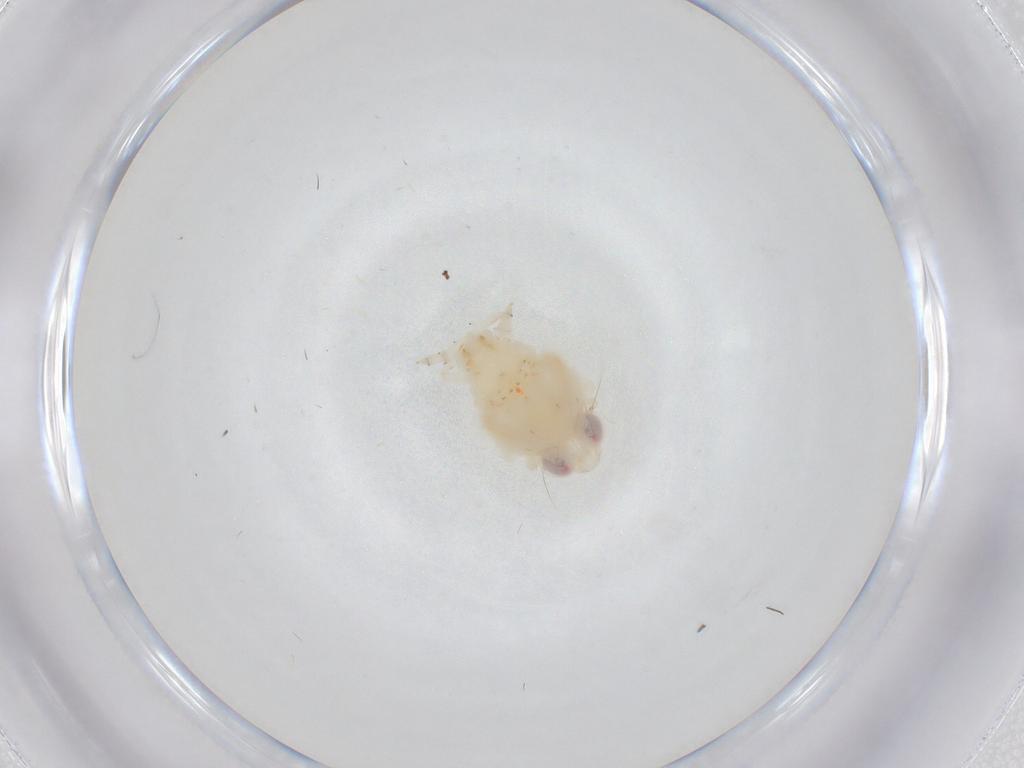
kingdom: Animalia
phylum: Arthropoda
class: Insecta
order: Hemiptera
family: Nogodinidae
